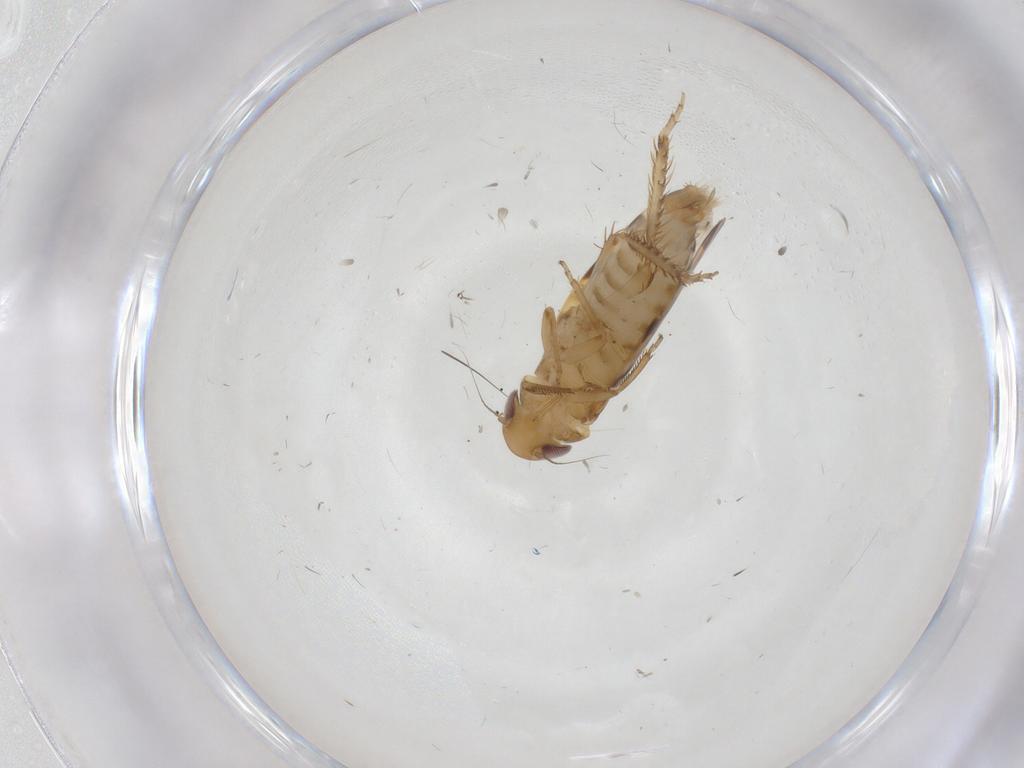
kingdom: Animalia
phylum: Arthropoda
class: Insecta
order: Hemiptera
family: Cicadellidae
